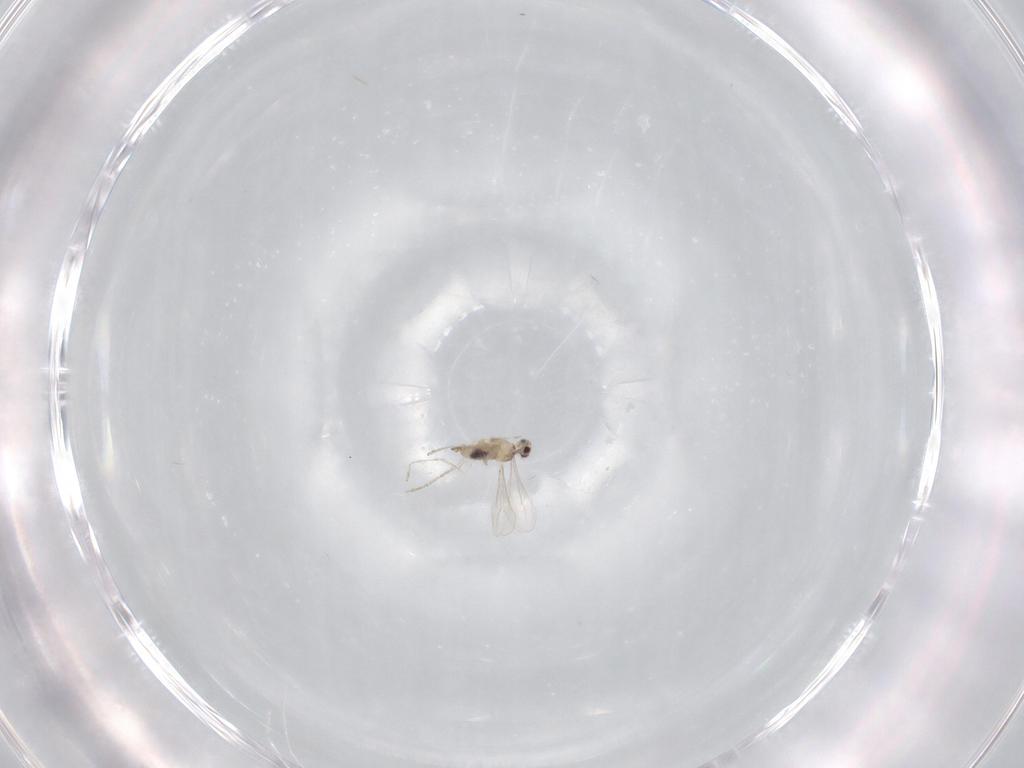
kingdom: Animalia
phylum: Arthropoda
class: Insecta
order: Diptera
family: Cecidomyiidae
